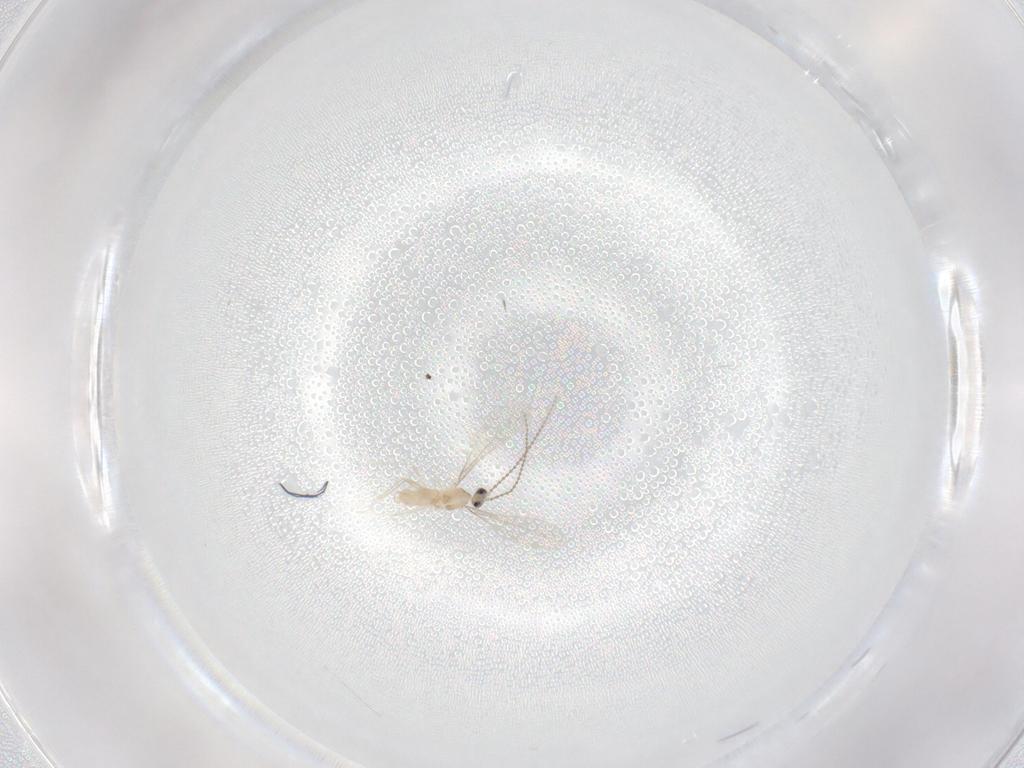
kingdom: Animalia
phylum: Arthropoda
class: Insecta
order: Diptera
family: Cecidomyiidae
